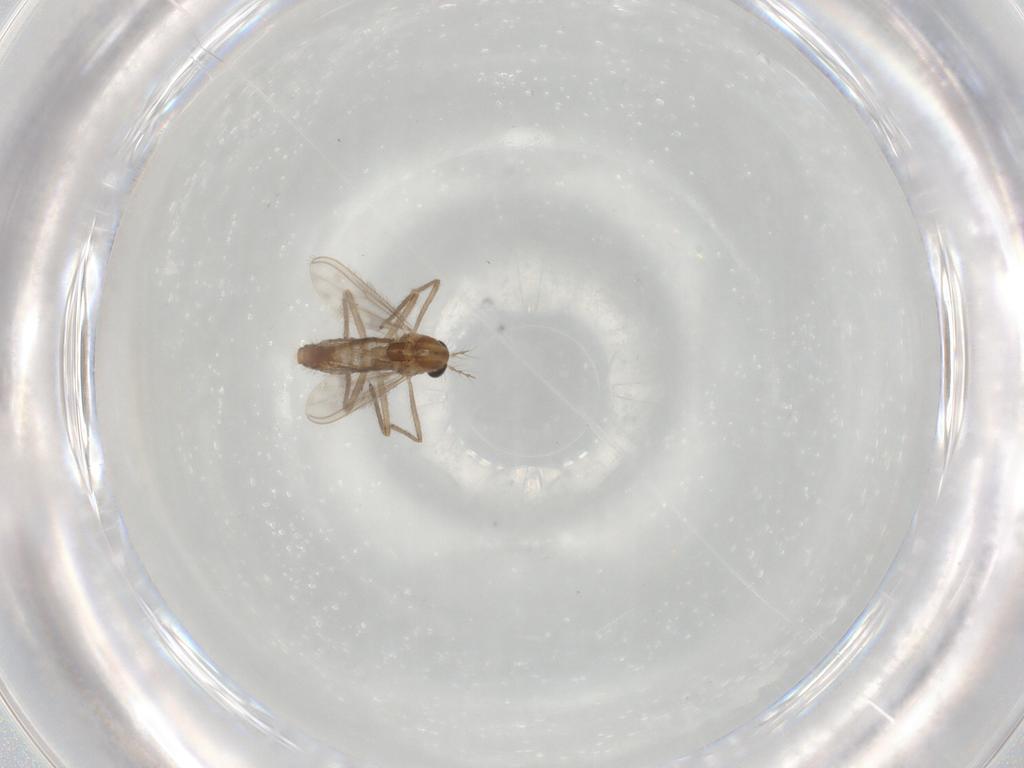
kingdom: Animalia
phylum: Arthropoda
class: Insecta
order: Diptera
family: Chironomidae
